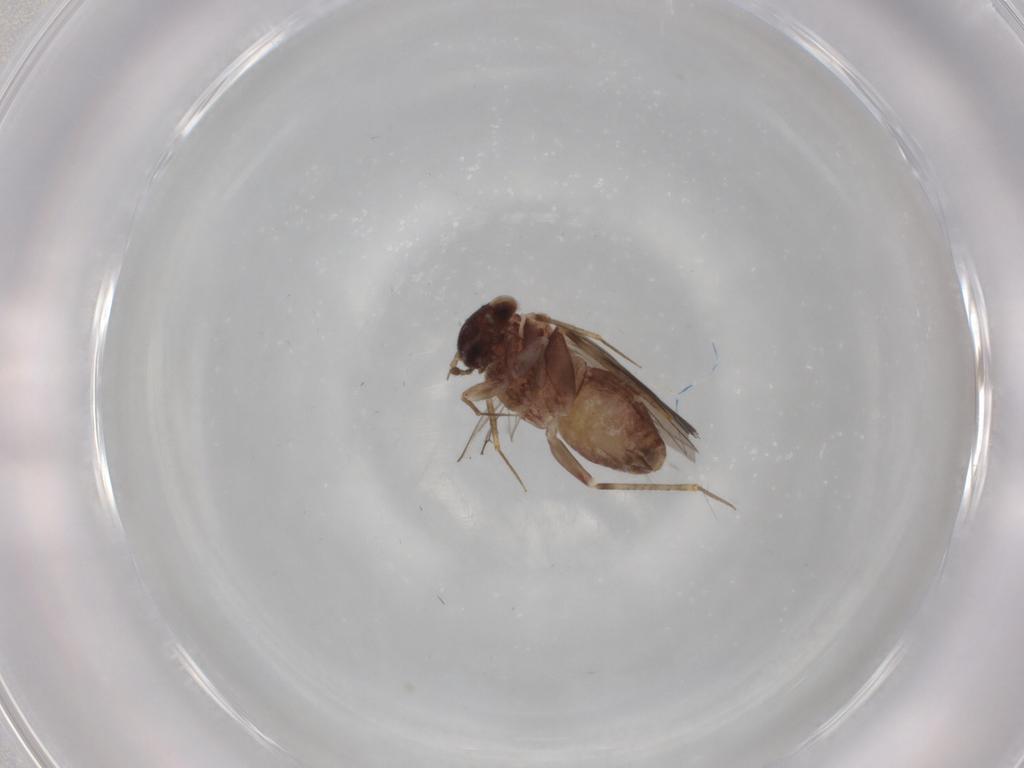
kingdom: Animalia
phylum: Arthropoda
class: Insecta
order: Psocodea
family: Lepidopsocidae
